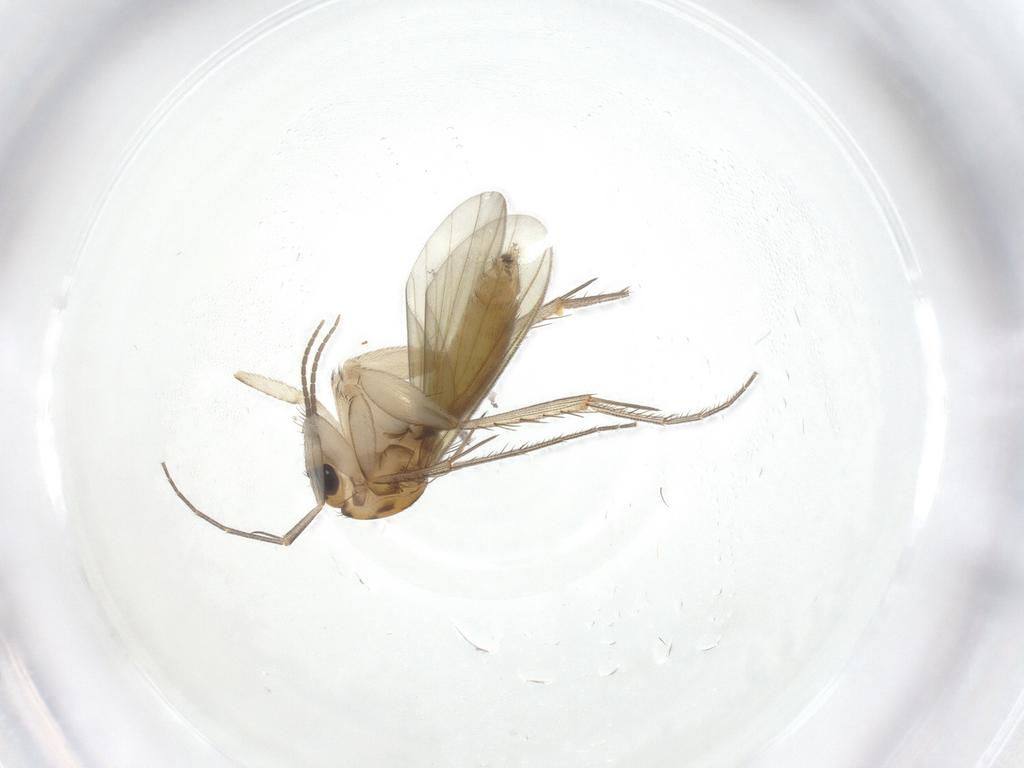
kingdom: Animalia
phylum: Arthropoda
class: Insecta
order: Diptera
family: Mycetophilidae
